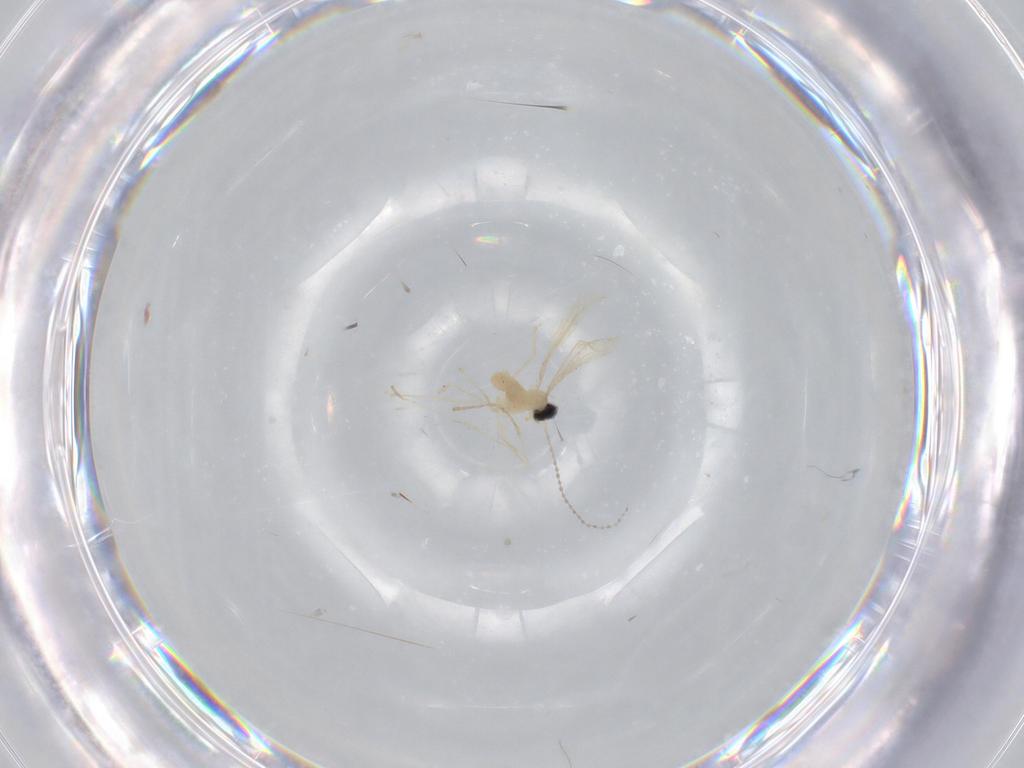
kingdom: Animalia
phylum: Arthropoda
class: Insecta
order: Diptera
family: Cecidomyiidae
